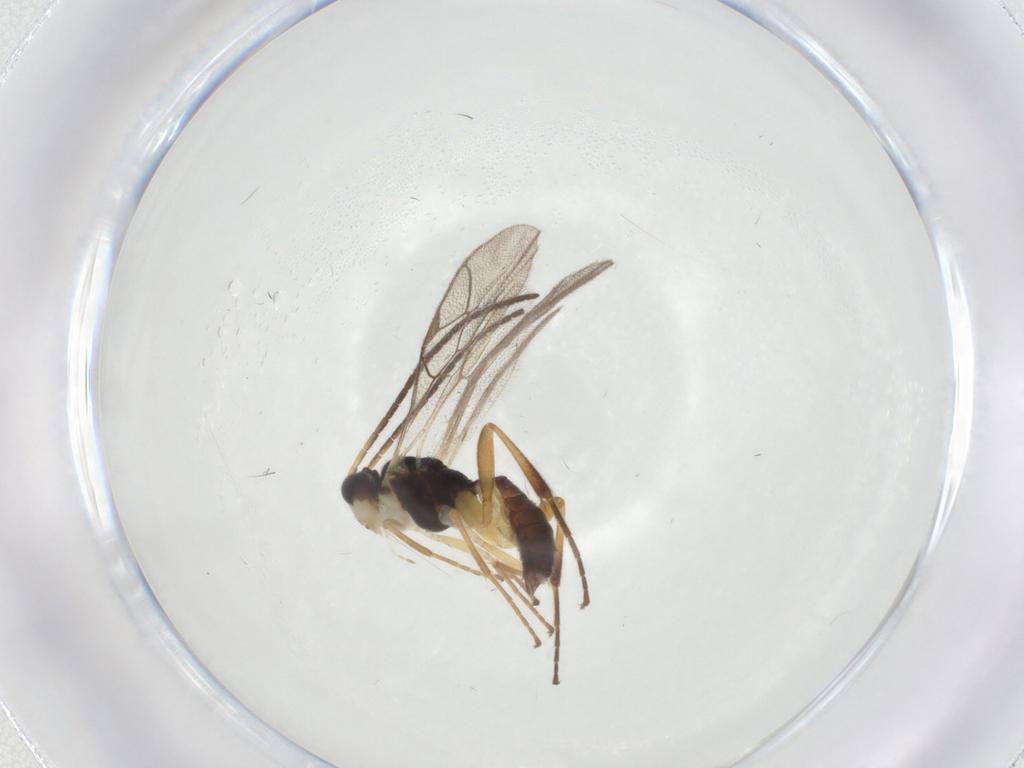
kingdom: Animalia
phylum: Arthropoda
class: Insecta
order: Hymenoptera
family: Ichneumonidae
